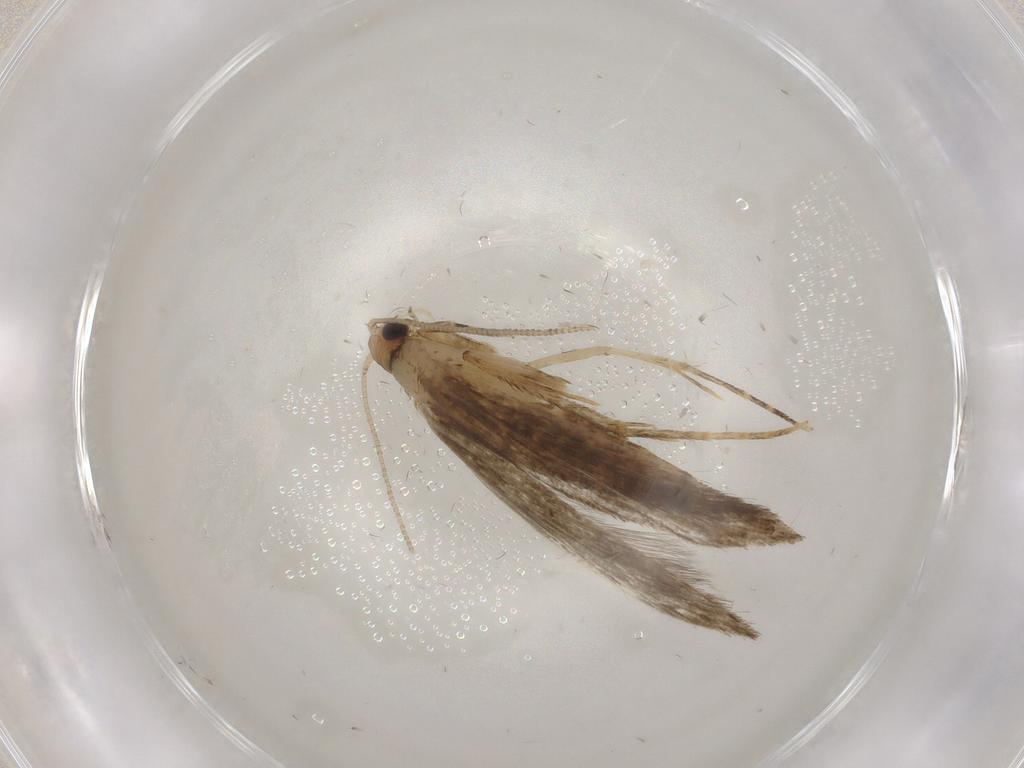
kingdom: Animalia
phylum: Arthropoda
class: Insecta
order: Lepidoptera
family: Tineidae
